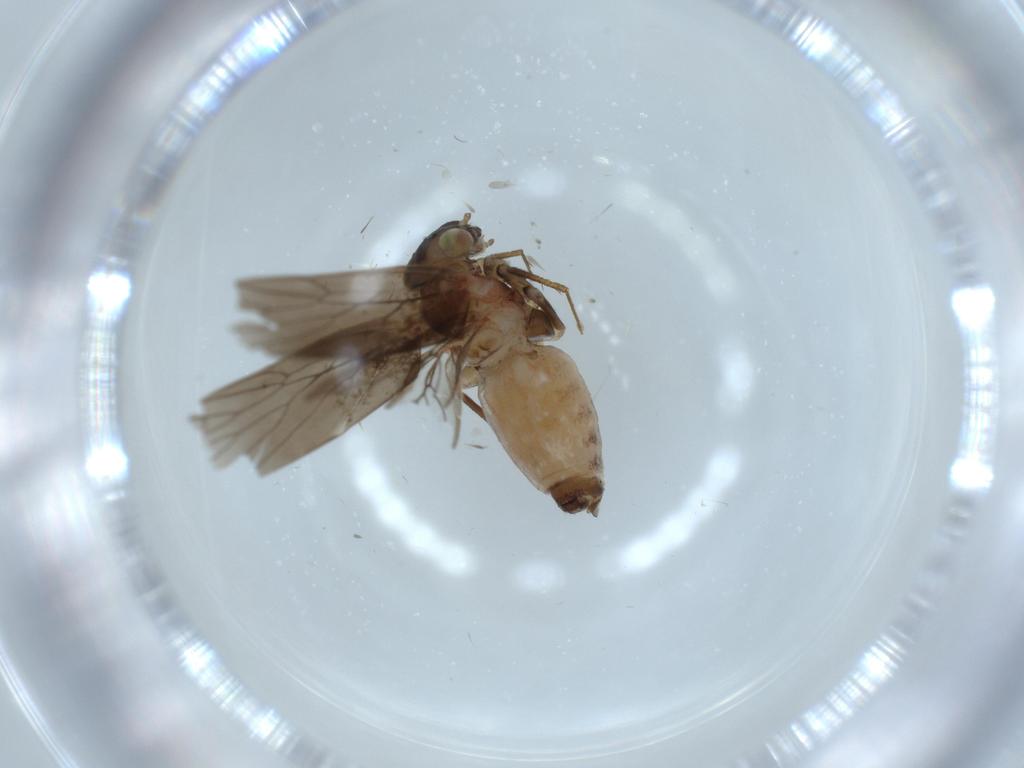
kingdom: Animalia
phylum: Arthropoda
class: Insecta
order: Psocodea
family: Lepidopsocidae
